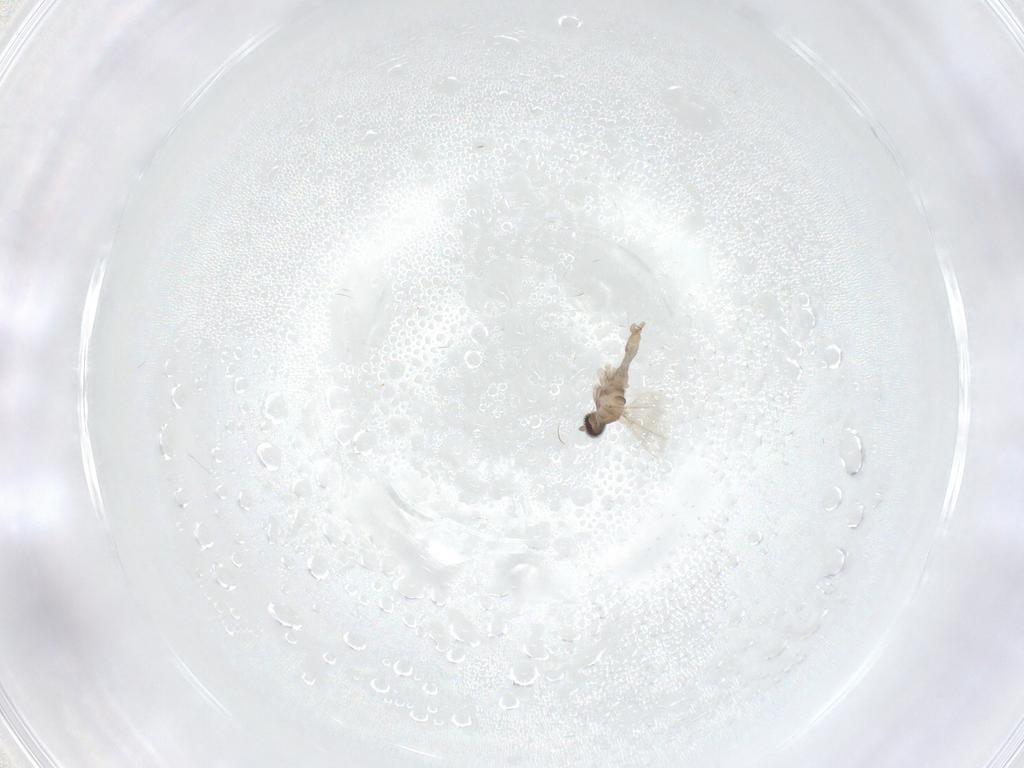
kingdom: Animalia
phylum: Arthropoda
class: Insecta
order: Diptera
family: Cecidomyiidae
